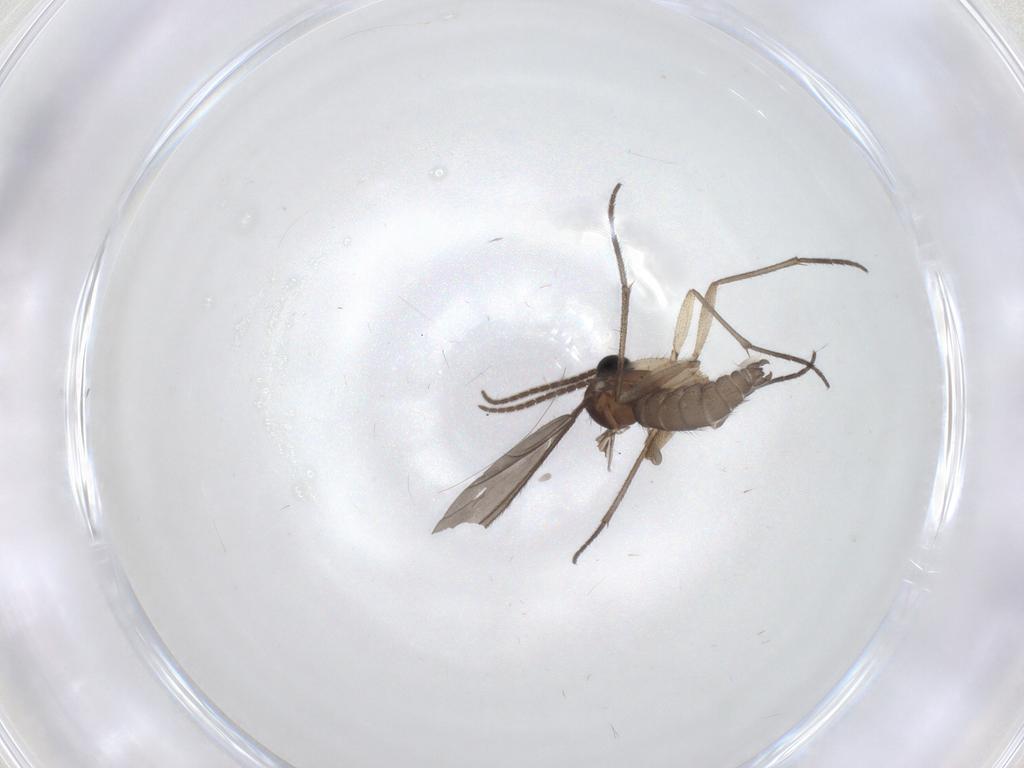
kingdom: Animalia
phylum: Arthropoda
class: Insecta
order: Diptera
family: Sciaridae
